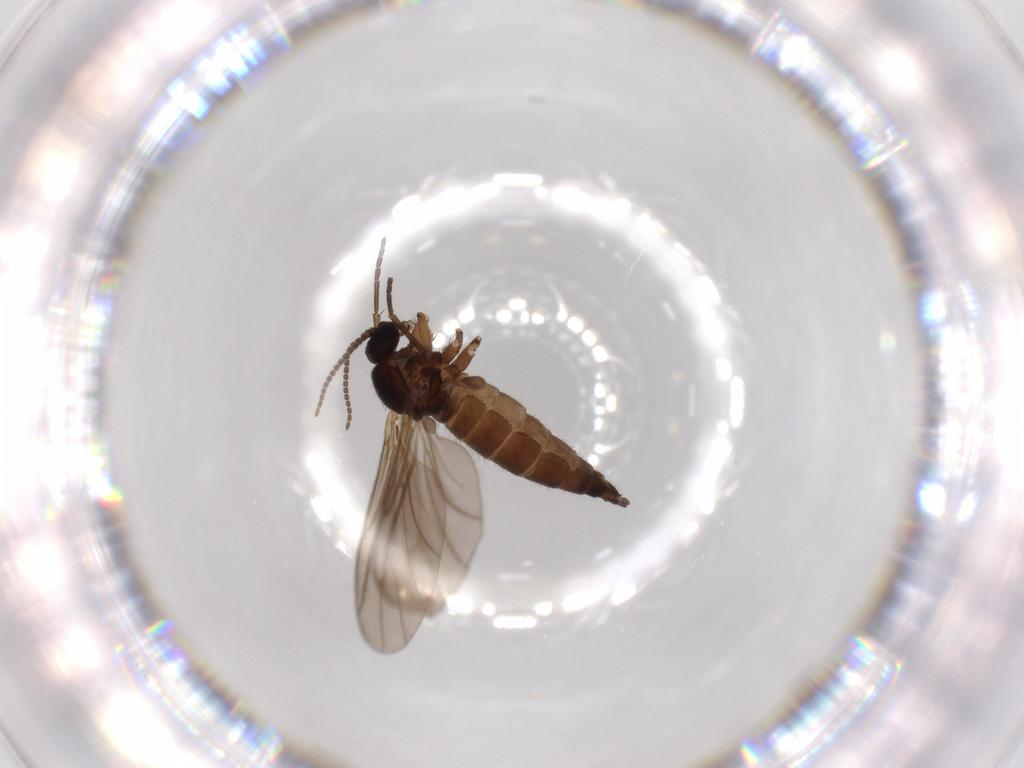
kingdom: Animalia
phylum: Arthropoda
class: Insecta
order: Diptera
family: Sciaridae
